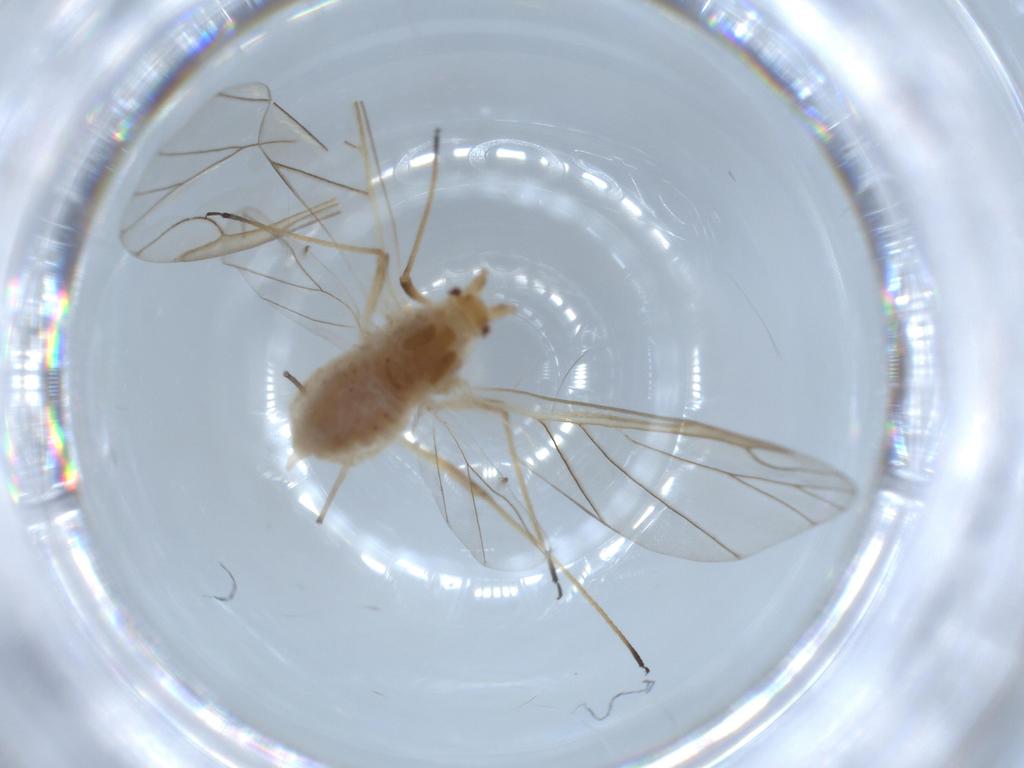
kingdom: Animalia
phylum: Arthropoda
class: Insecta
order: Hemiptera
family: Aphididae
